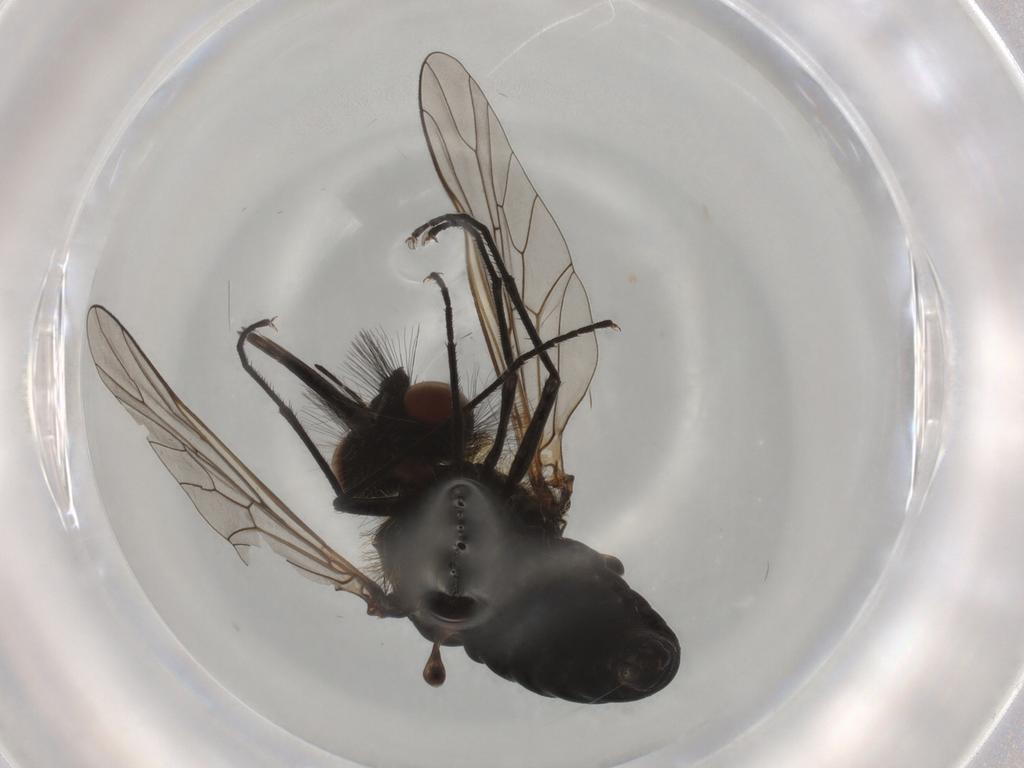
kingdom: Animalia
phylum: Arthropoda
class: Insecta
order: Diptera
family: Bombyliidae
